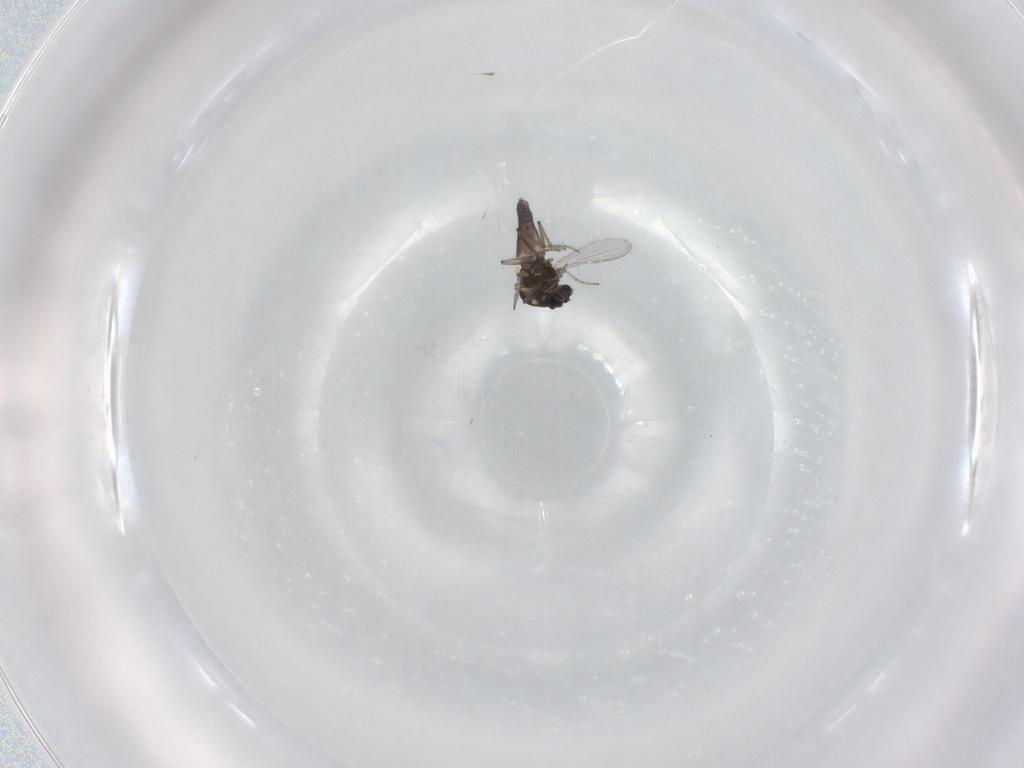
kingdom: Animalia
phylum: Arthropoda
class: Insecta
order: Diptera
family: Ceratopogonidae
